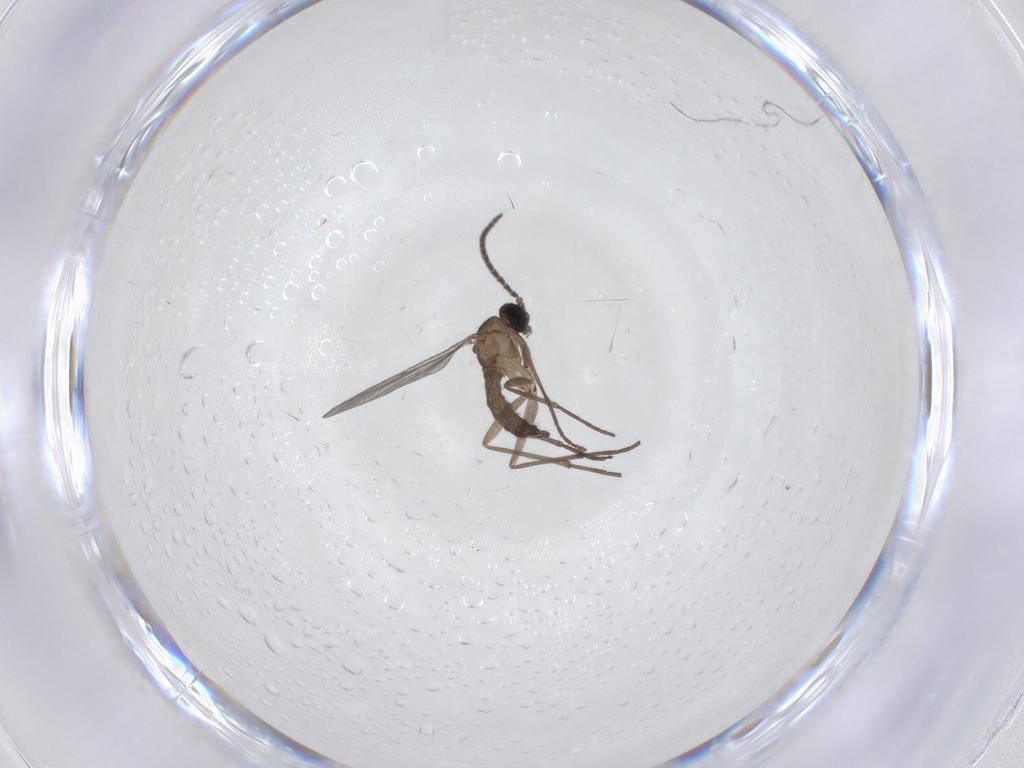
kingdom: Animalia
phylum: Arthropoda
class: Insecta
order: Diptera
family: Sciaridae
